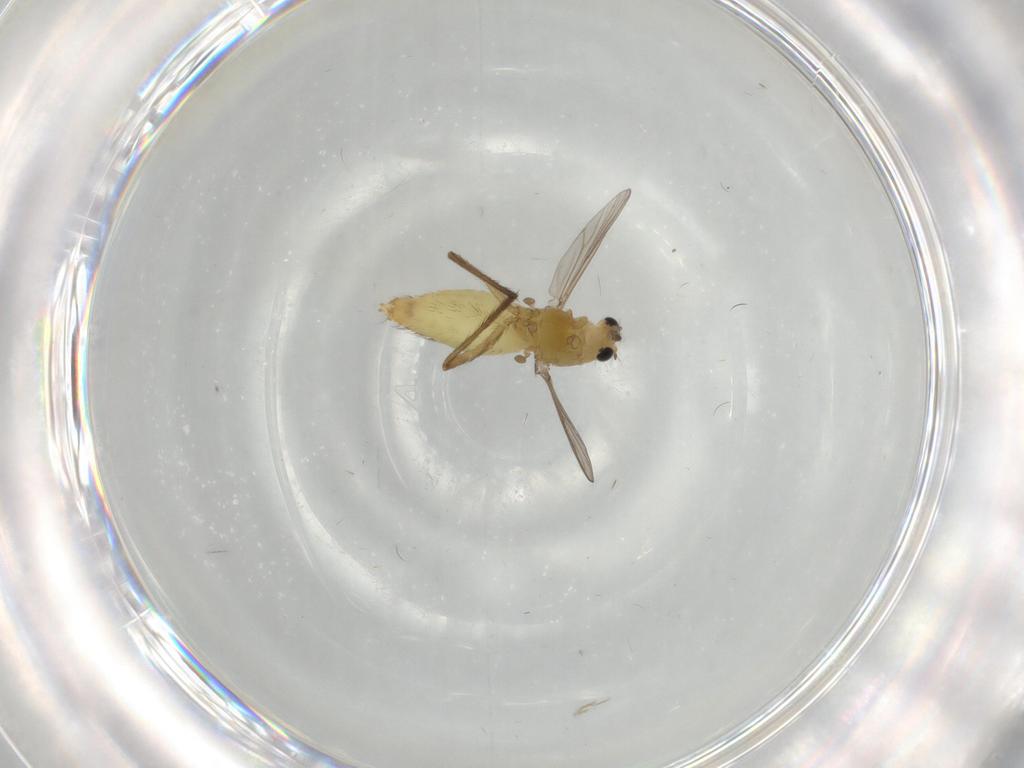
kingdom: Animalia
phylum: Arthropoda
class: Insecta
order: Diptera
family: Chironomidae
